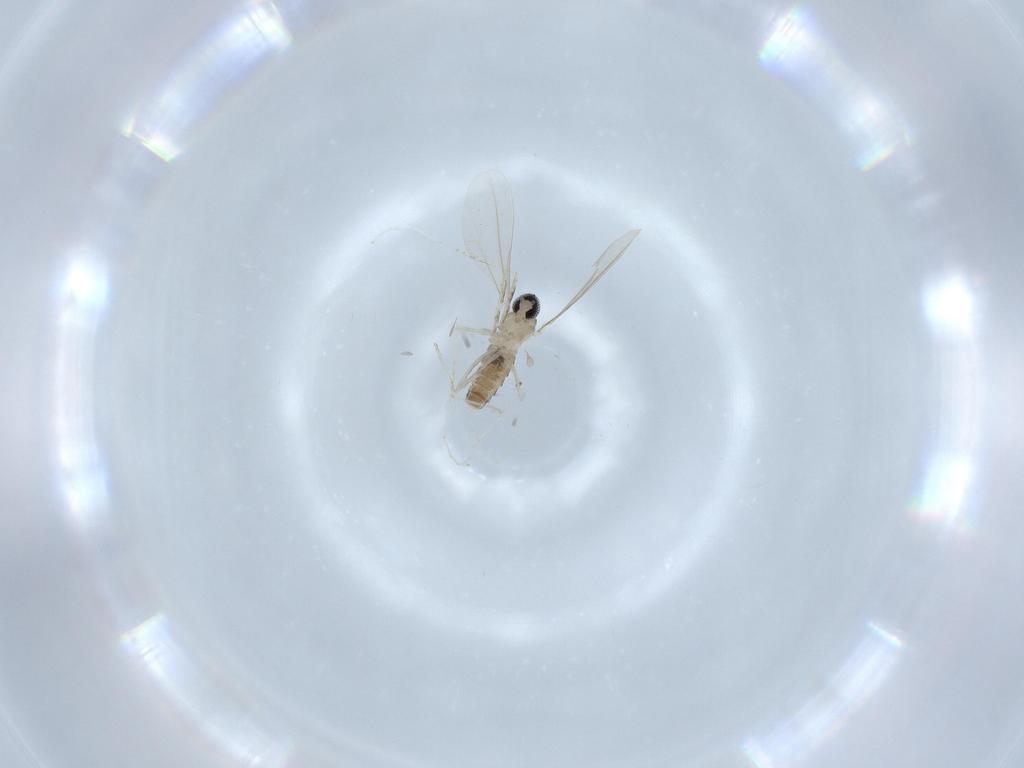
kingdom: Animalia
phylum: Arthropoda
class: Insecta
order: Diptera
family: Cecidomyiidae
